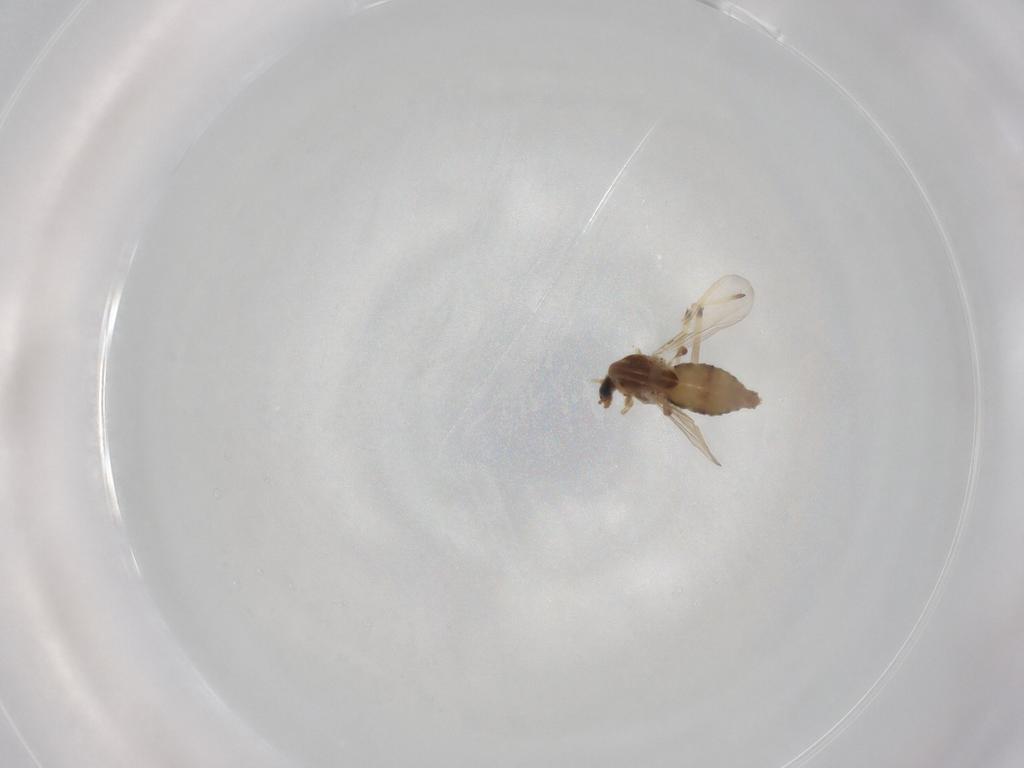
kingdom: Animalia
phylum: Arthropoda
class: Insecta
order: Diptera
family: Chironomidae
